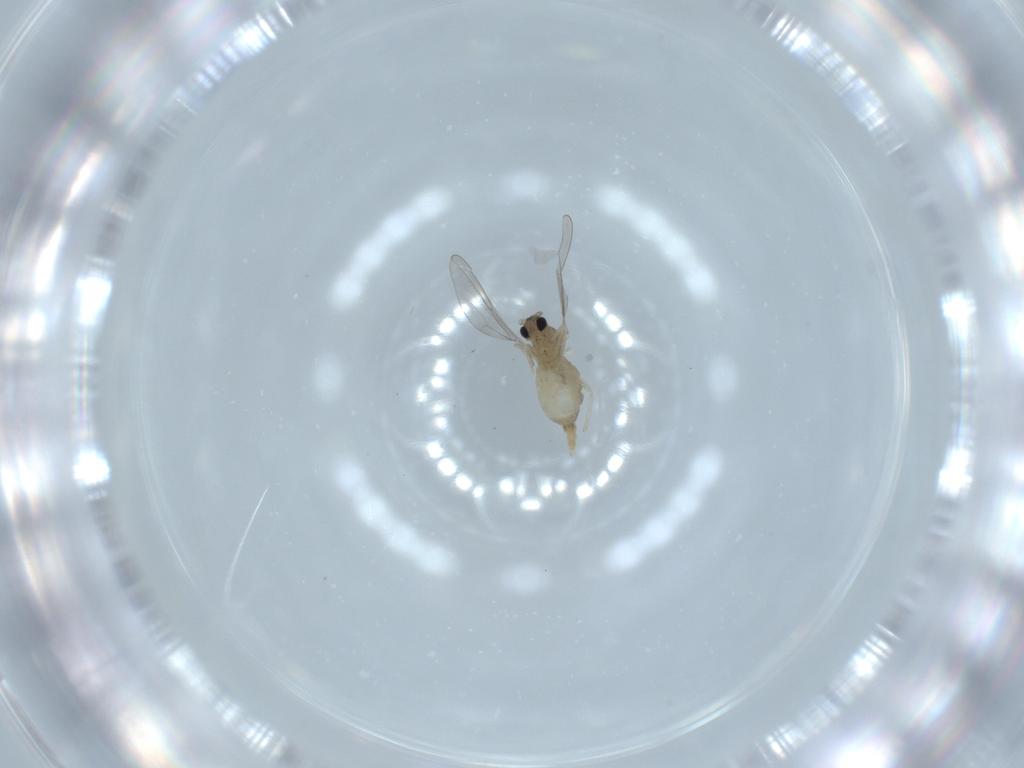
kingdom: Animalia
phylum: Arthropoda
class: Insecta
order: Diptera
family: Cecidomyiidae
